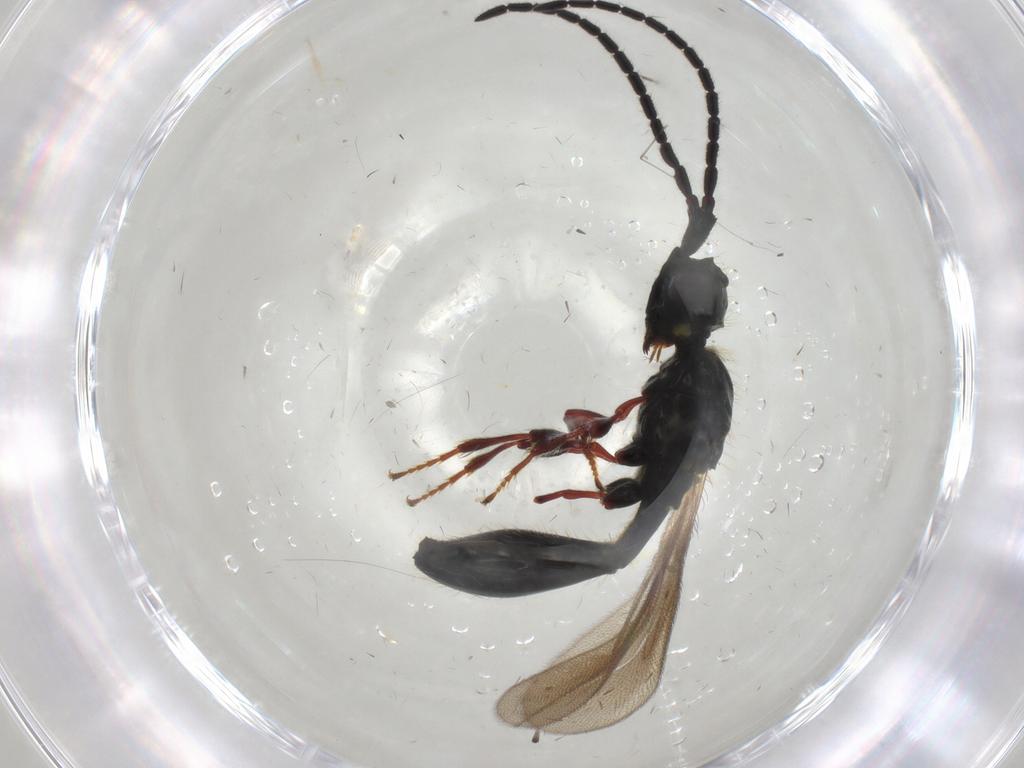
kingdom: Animalia
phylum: Arthropoda
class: Insecta
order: Hymenoptera
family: Diapriidae
